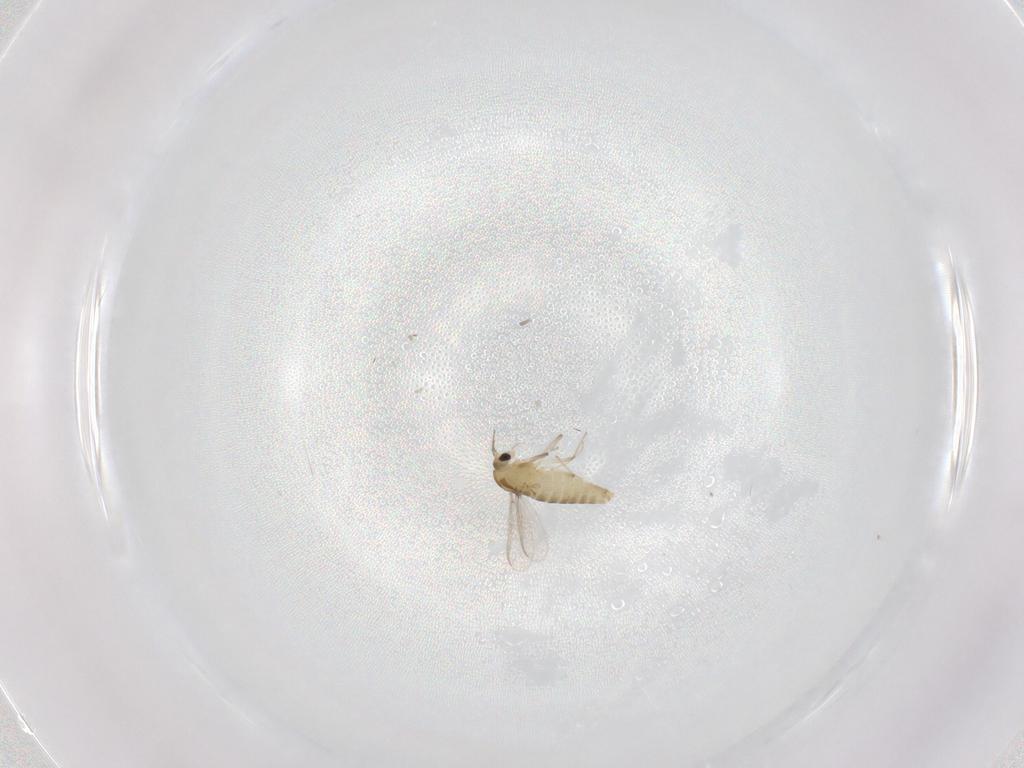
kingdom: Animalia
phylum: Arthropoda
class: Insecta
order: Diptera
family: Chironomidae
